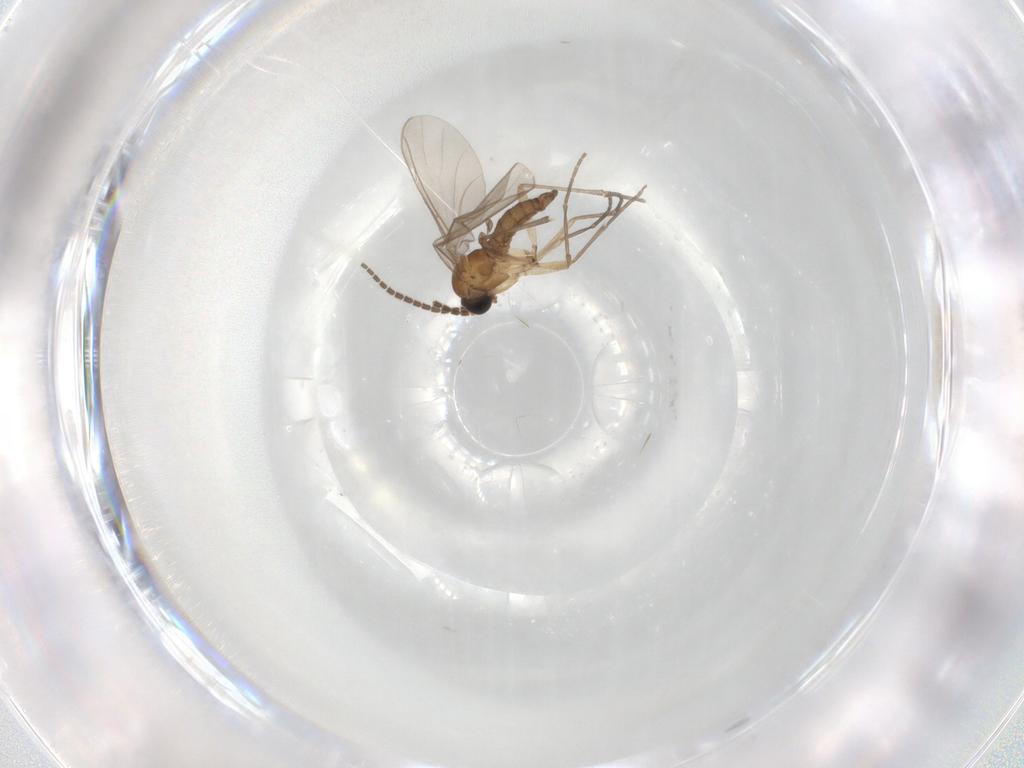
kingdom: Animalia
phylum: Arthropoda
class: Insecta
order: Diptera
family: Sciaridae
